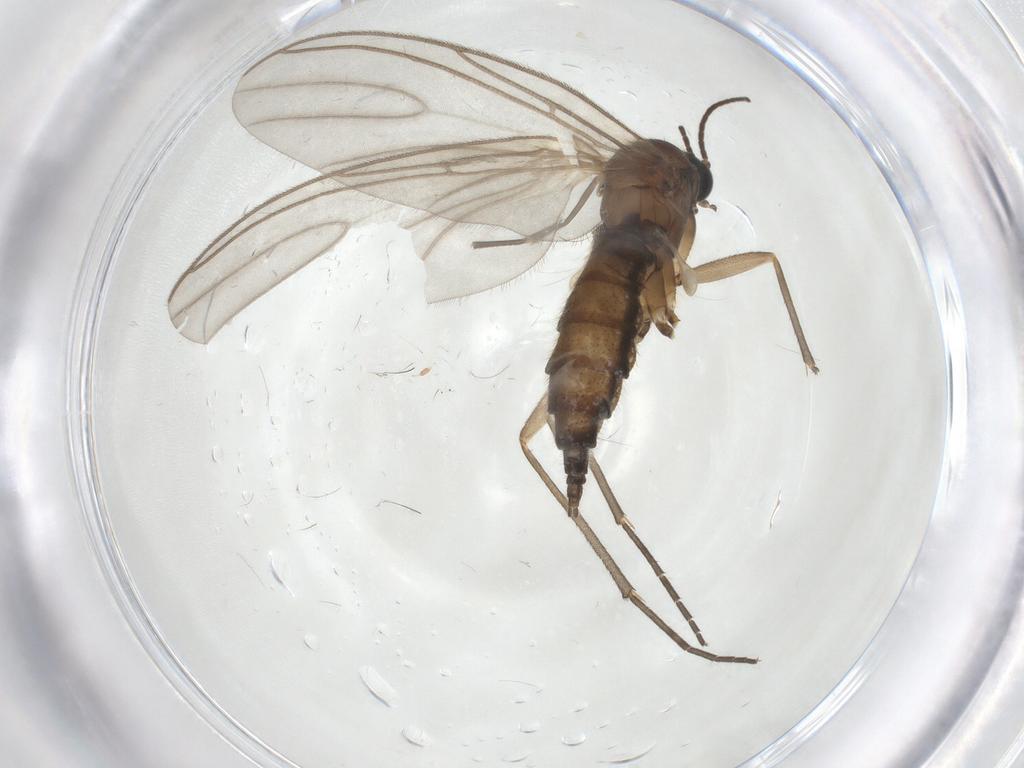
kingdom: Animalia
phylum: Arthropoda
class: Insecta
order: Diptera
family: Sciaridae
